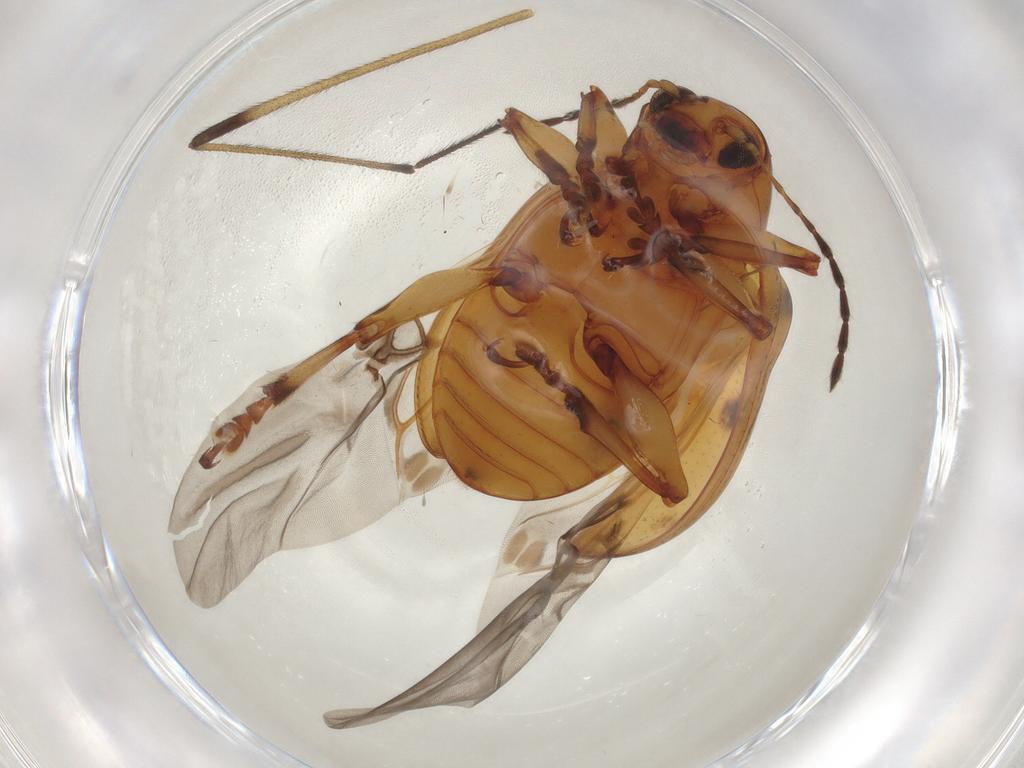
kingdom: Animalia
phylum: Arthropoda
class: Insecta
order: Coleoptera
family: Chrysomelidae
